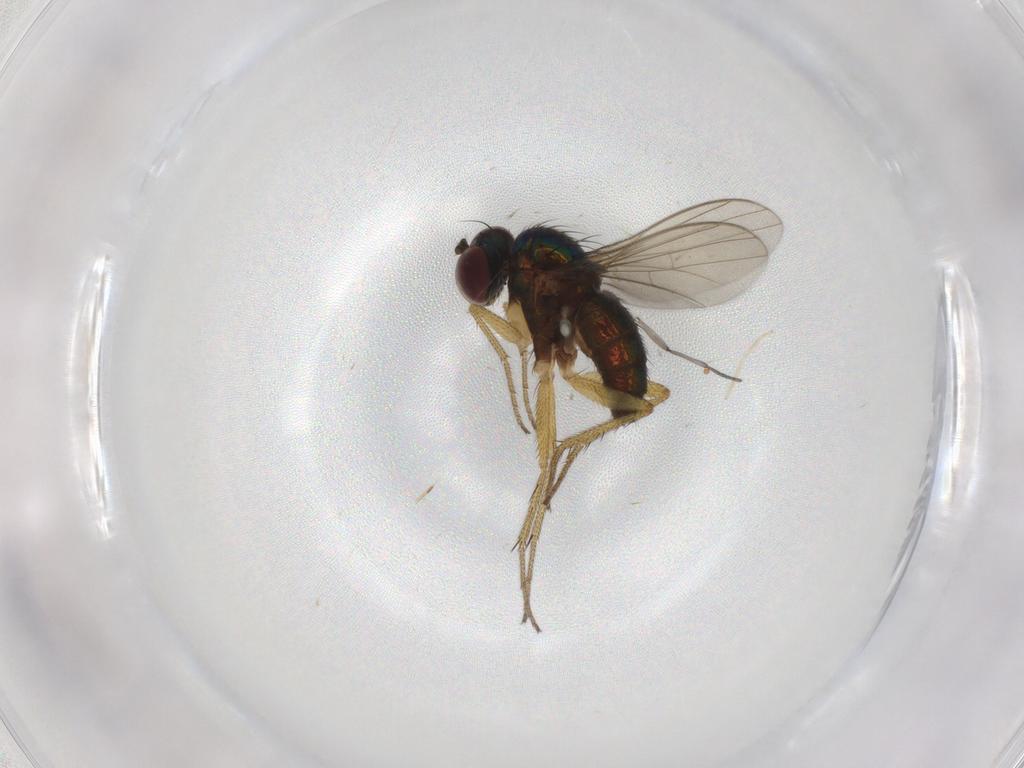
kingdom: Animalia
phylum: Arthropoda
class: Insecta
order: Diptera
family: Sciaridae
